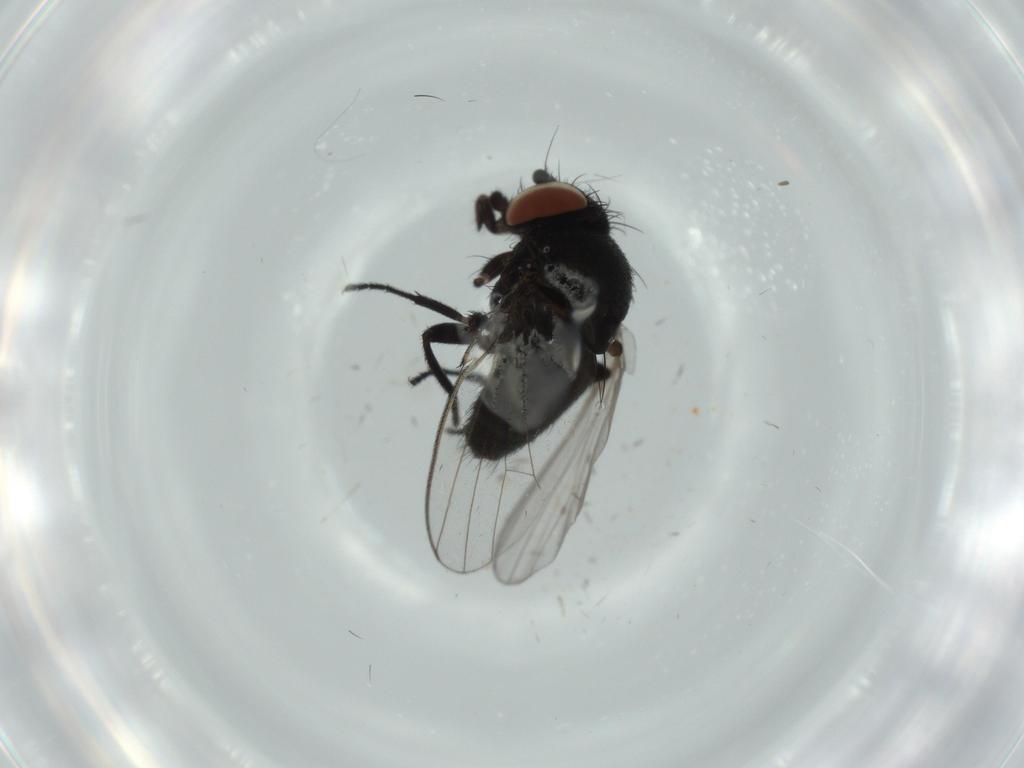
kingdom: Animalia
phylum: Arthropoda
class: Insecta
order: Diptera
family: Milichiidae
